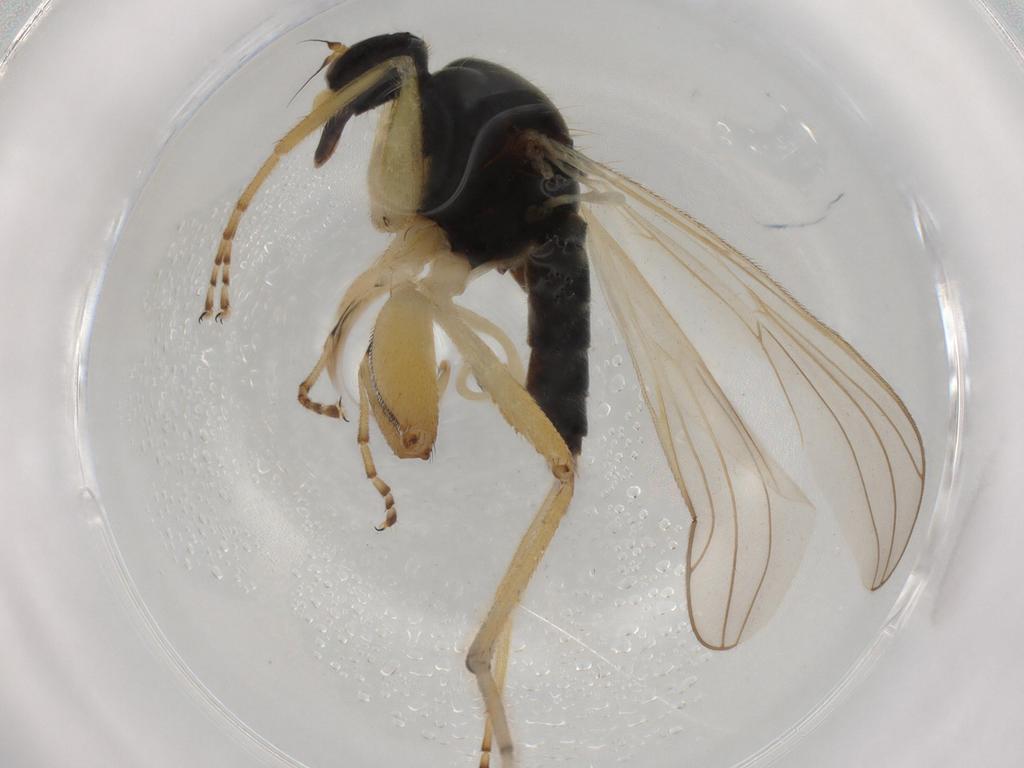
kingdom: Animalia
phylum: Arthropoda
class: Insecta
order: Diptera
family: Hybotidae
